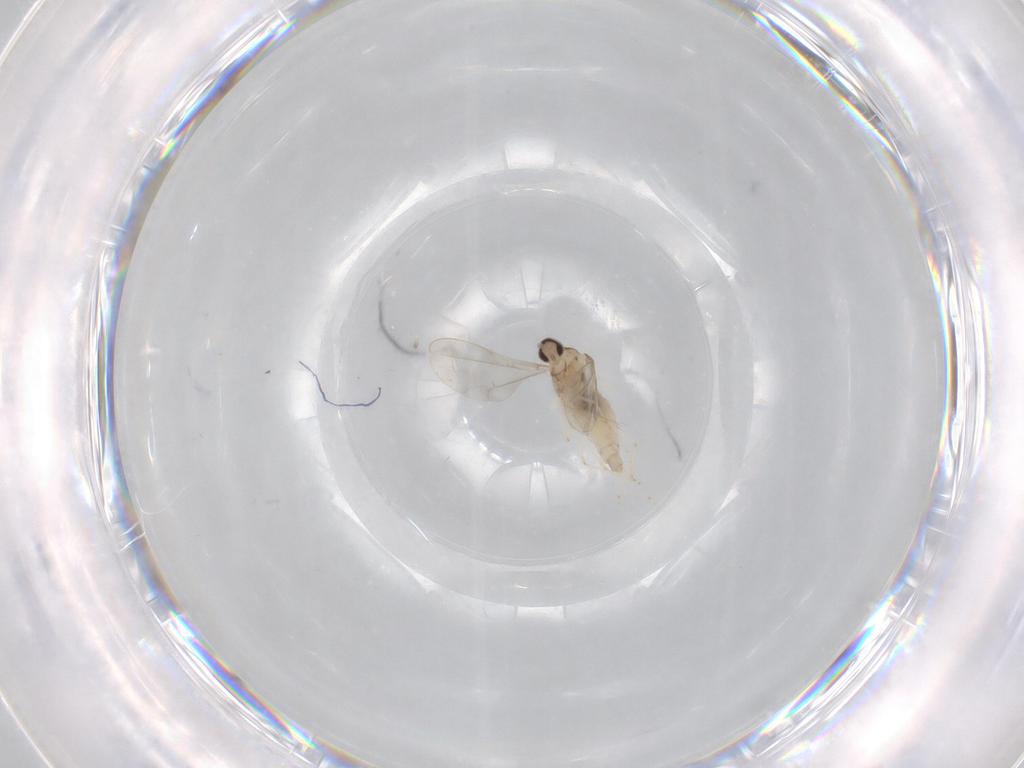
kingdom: Animalia
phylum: Arthropoda
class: Insecta
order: Diptera
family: Cecidomyiidae
